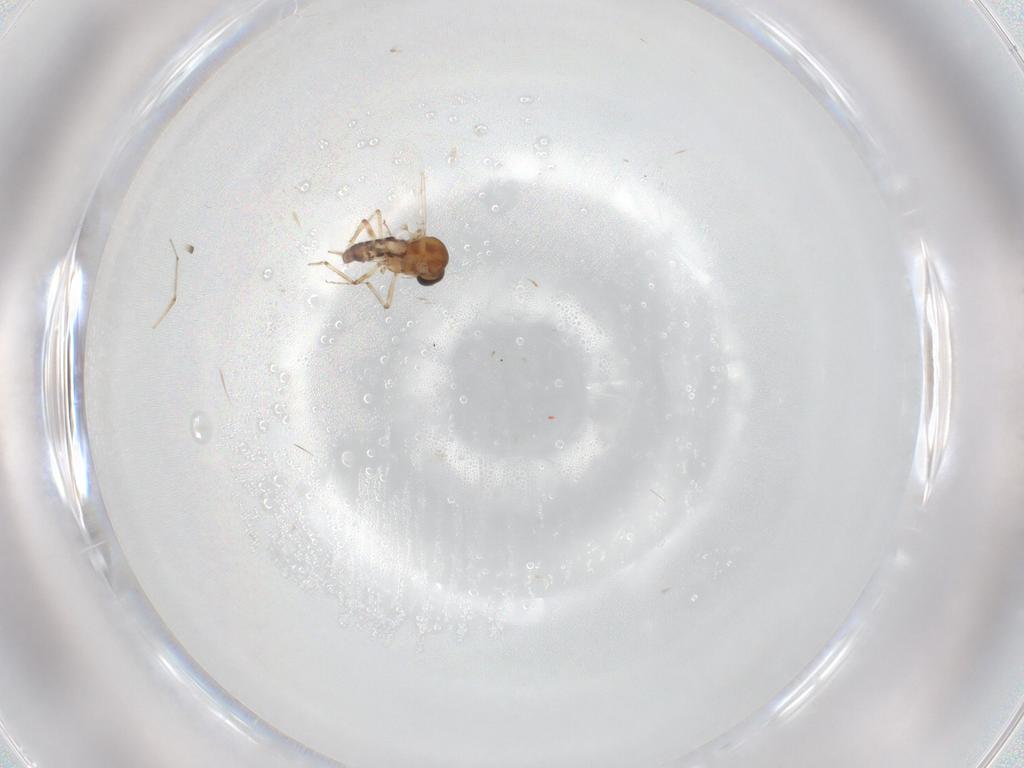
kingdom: Animalia
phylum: Arthropoda
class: Insecta
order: Diptera
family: Ceratopogonidae
